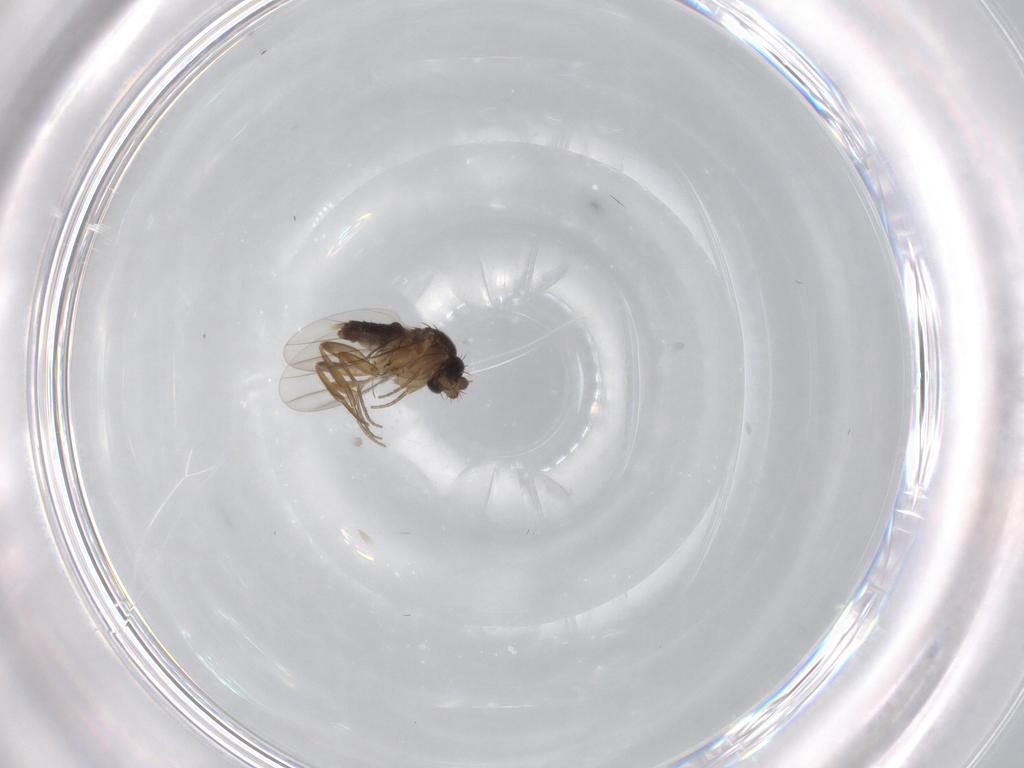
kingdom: Animalia
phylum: Arthropoda
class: Insecta
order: Diptera
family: Phoridae
